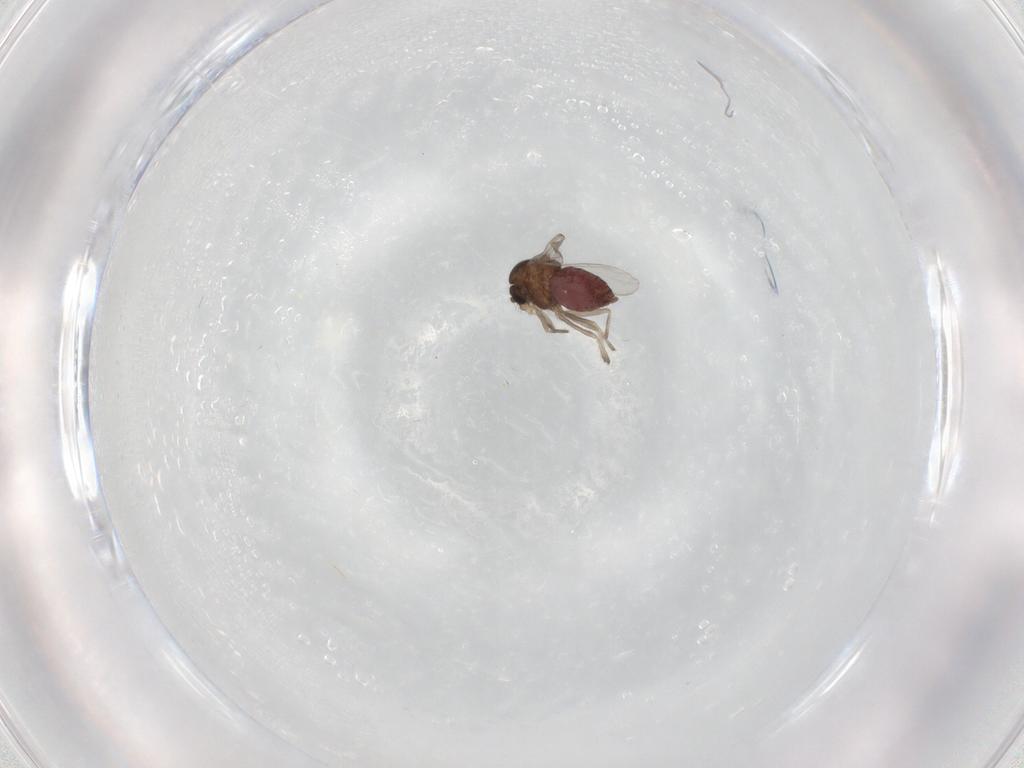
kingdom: Animalia
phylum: Arthropoda
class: Insecta
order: Diptera
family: Chironomidae
